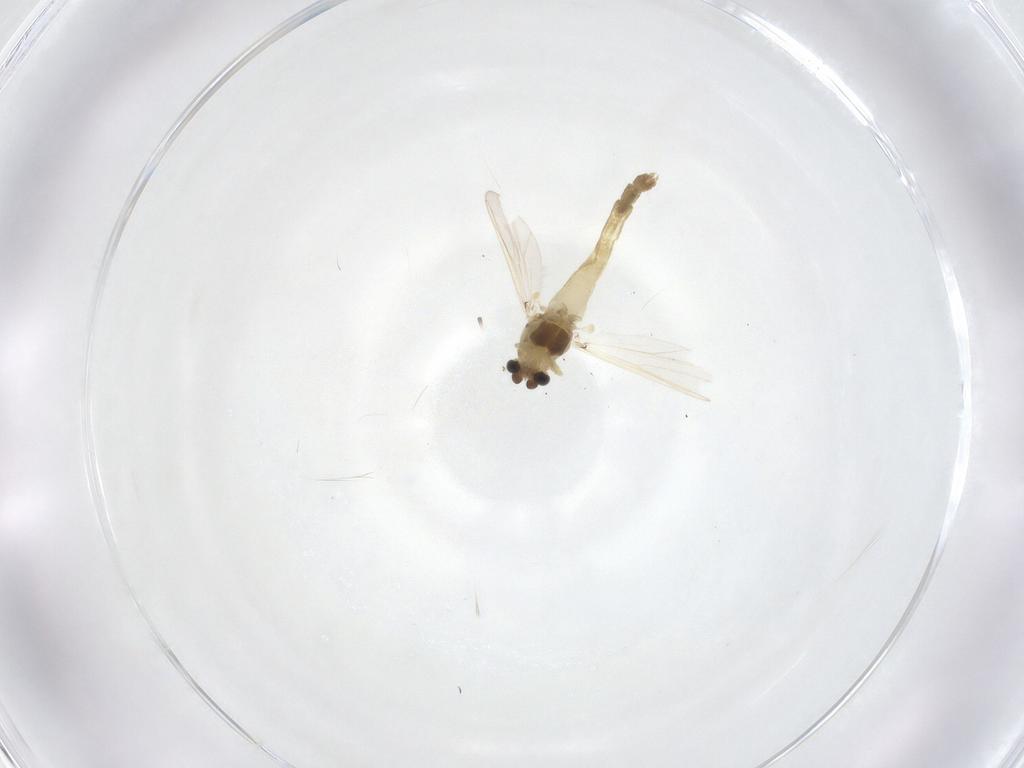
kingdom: Animalia
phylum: Arthropoda
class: Insecta
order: Diptera
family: Chironomidae
